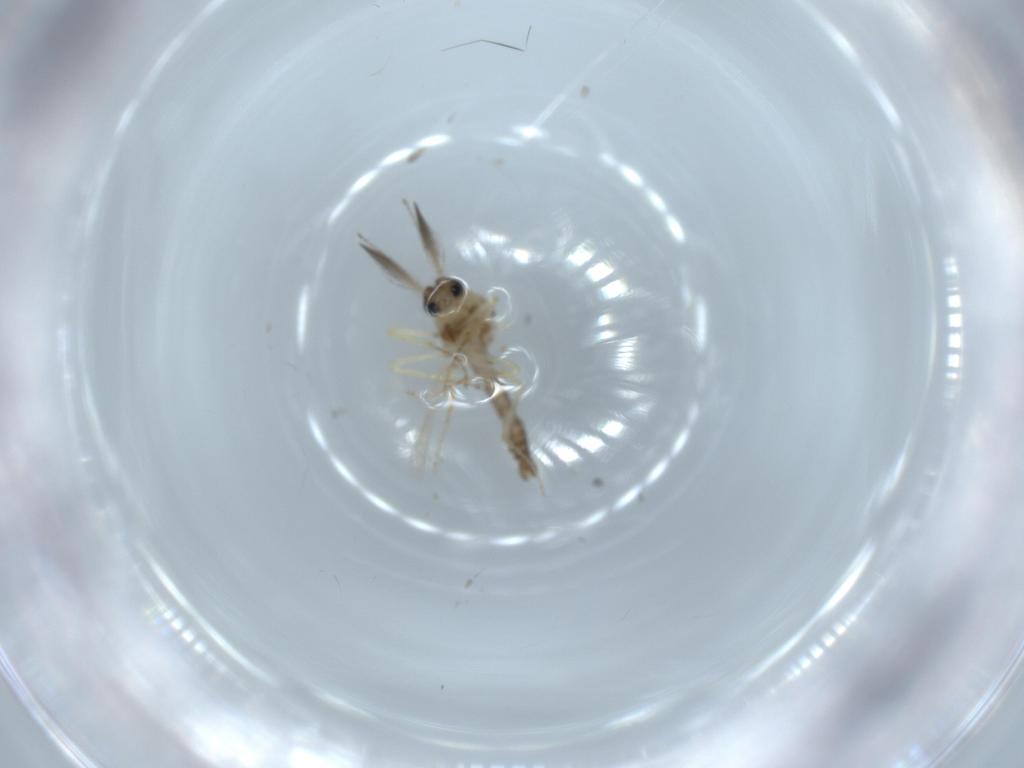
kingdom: Animalia
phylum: Arthropoda
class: Insecta
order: Diptera
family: Ceratopogonidae
